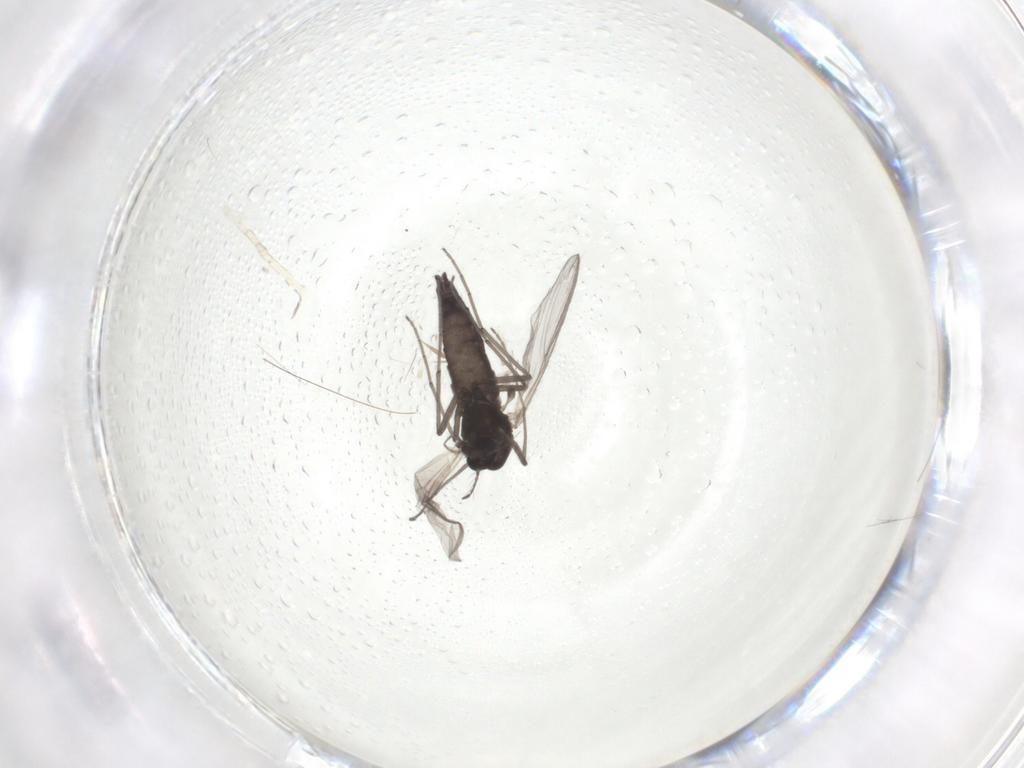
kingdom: Animalia
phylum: Arthropoda
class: Insecta
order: Diptera
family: Chironomidae
